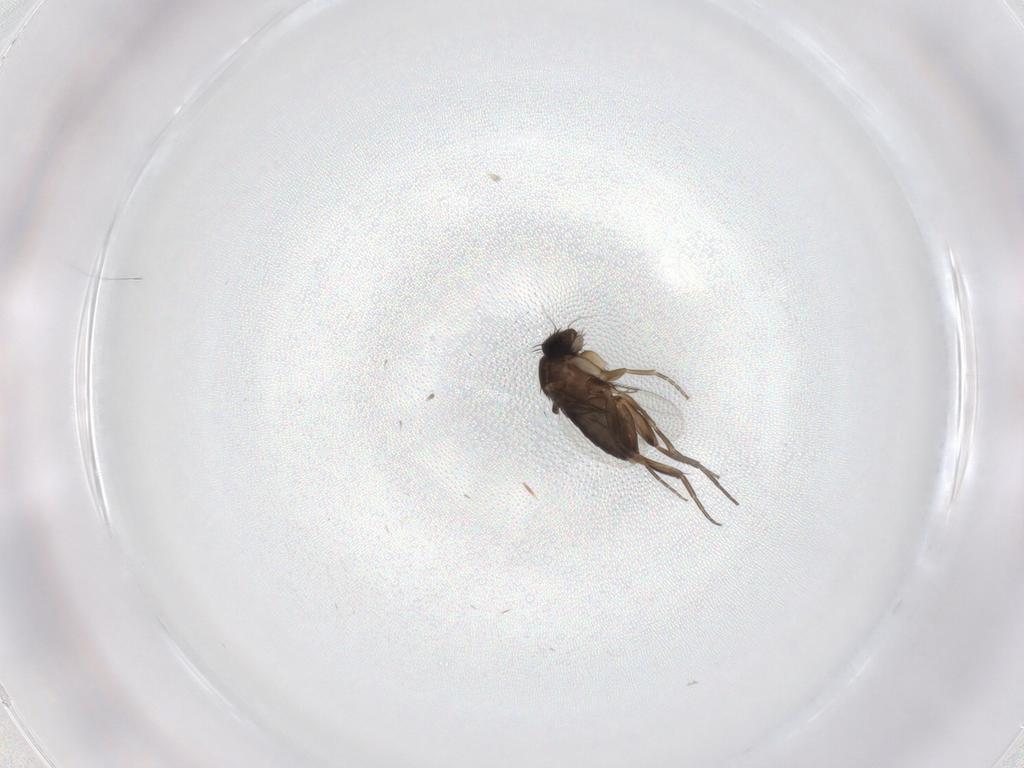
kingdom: Animalia
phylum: Arthropoda
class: Insecta
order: Diptera
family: Phoridae
